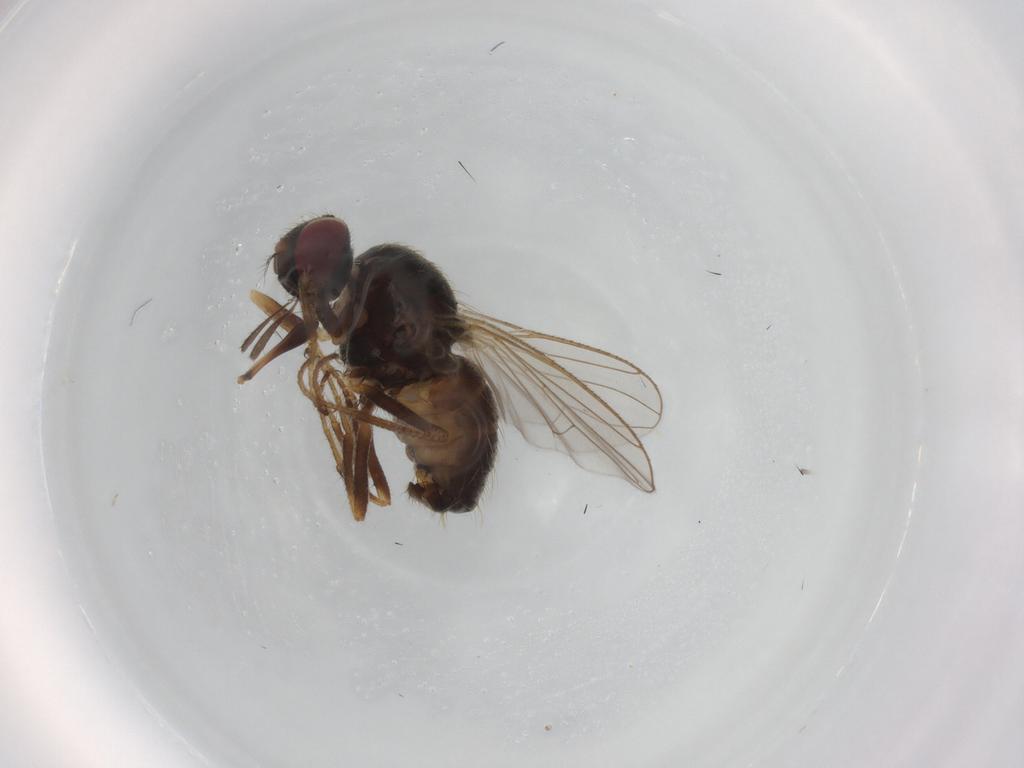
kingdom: Animalia
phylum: Arthropoda
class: Insecta
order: Diptera
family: Muscidae
